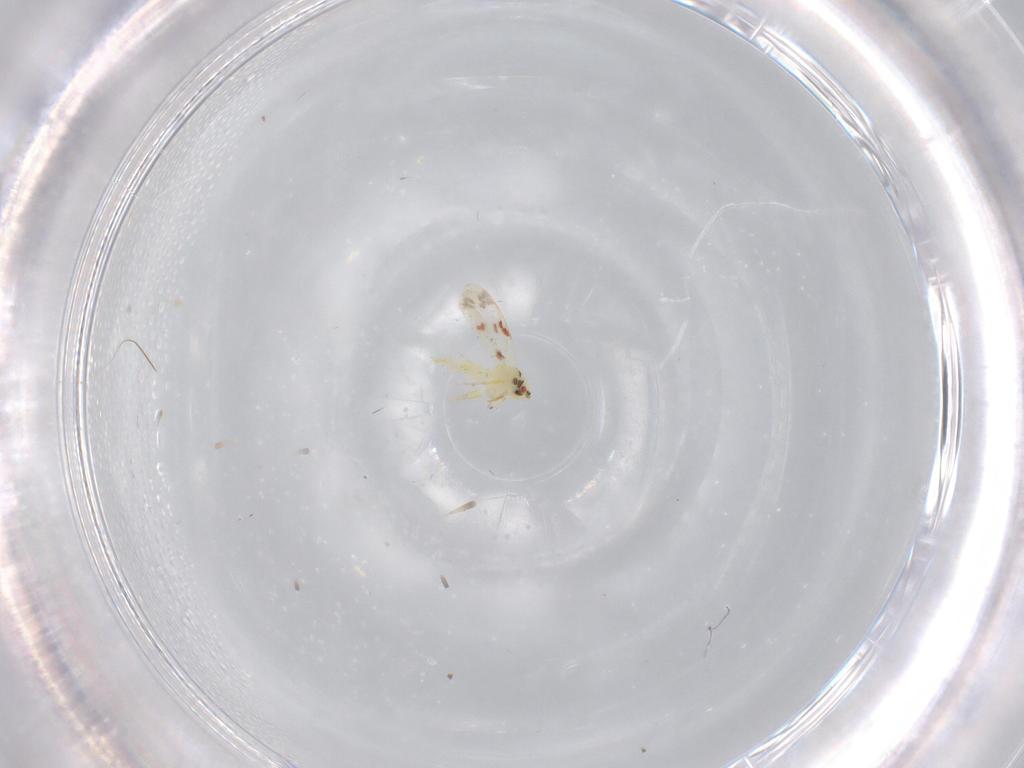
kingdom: Animalia
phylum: Arthropoda
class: Insecta
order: Hemiptera
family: Aleyrodidae
